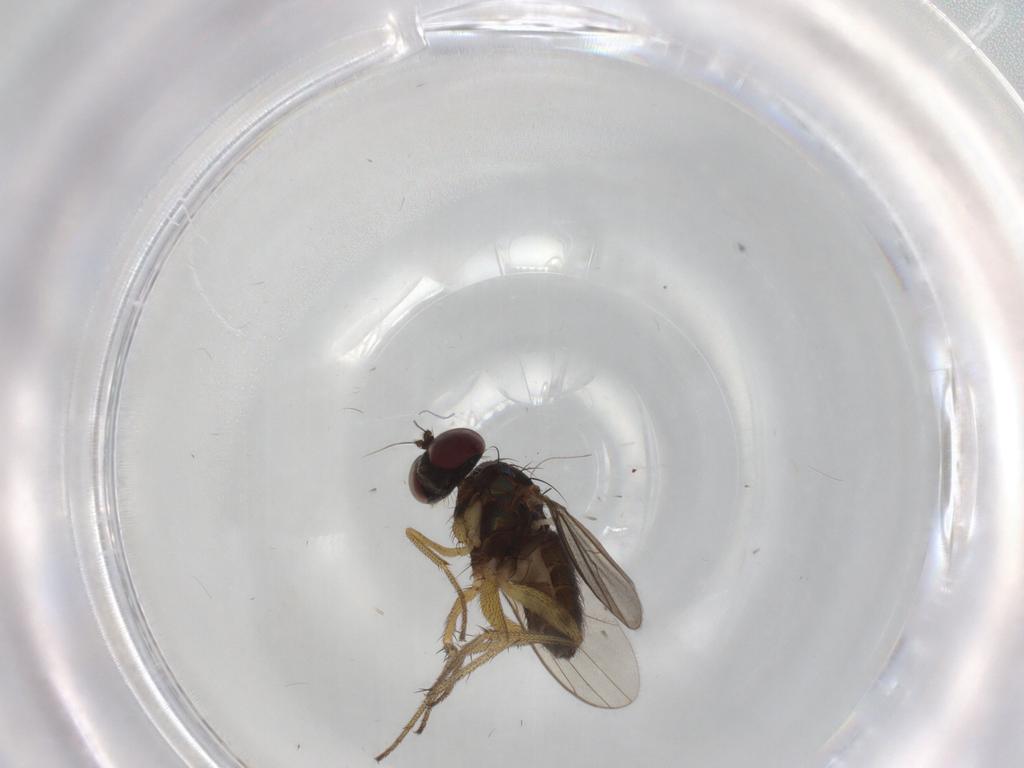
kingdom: Animalia
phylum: Arthropoda
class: Insecta
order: Diptera
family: Dolichopodidae
